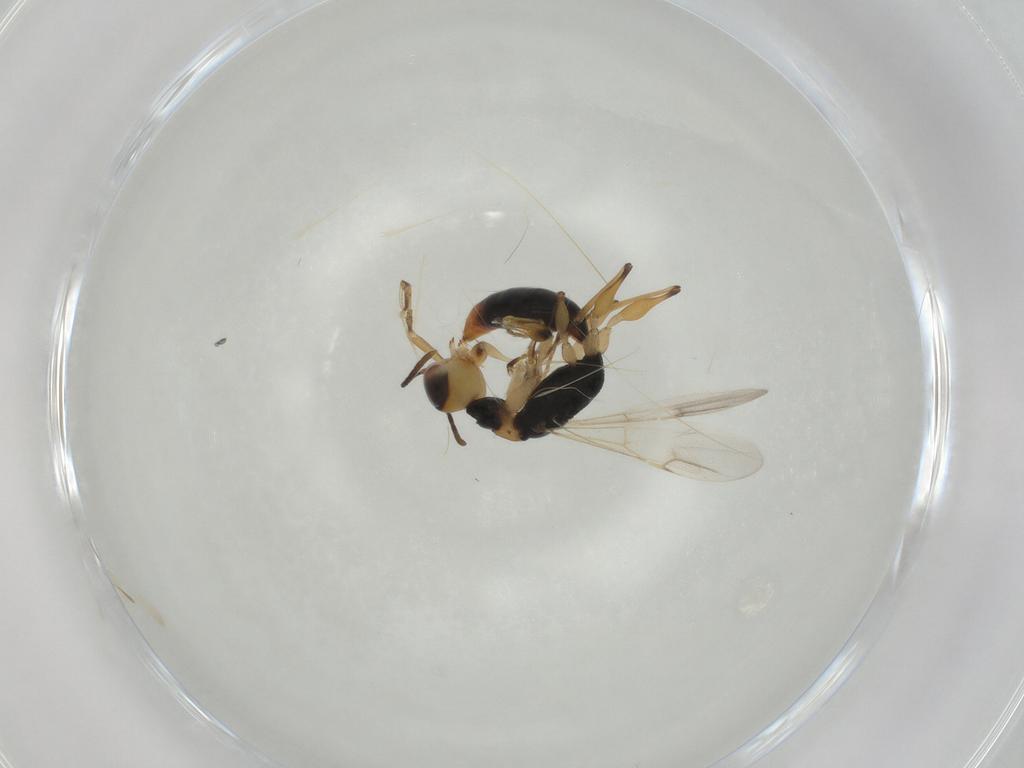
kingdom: Animalia
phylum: Arthropoda
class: Insecta
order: Hymenoptera
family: Dryinidae
